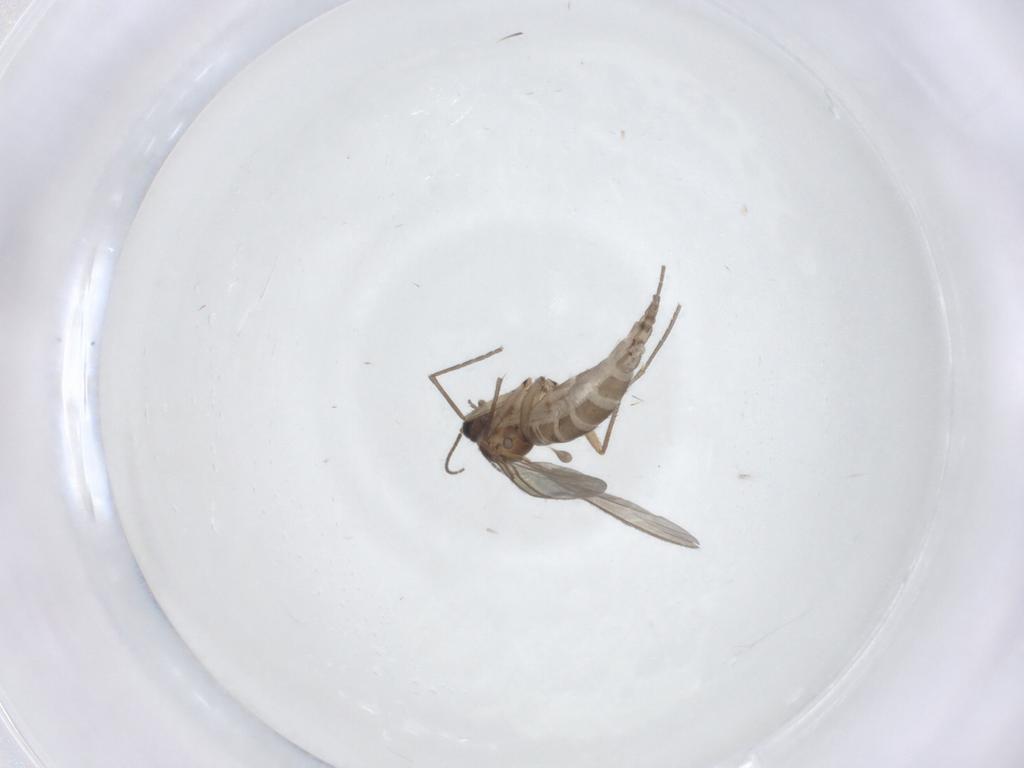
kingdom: Animalia
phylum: Arthropoda
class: Insecta
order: Diptera
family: Sciaridae
